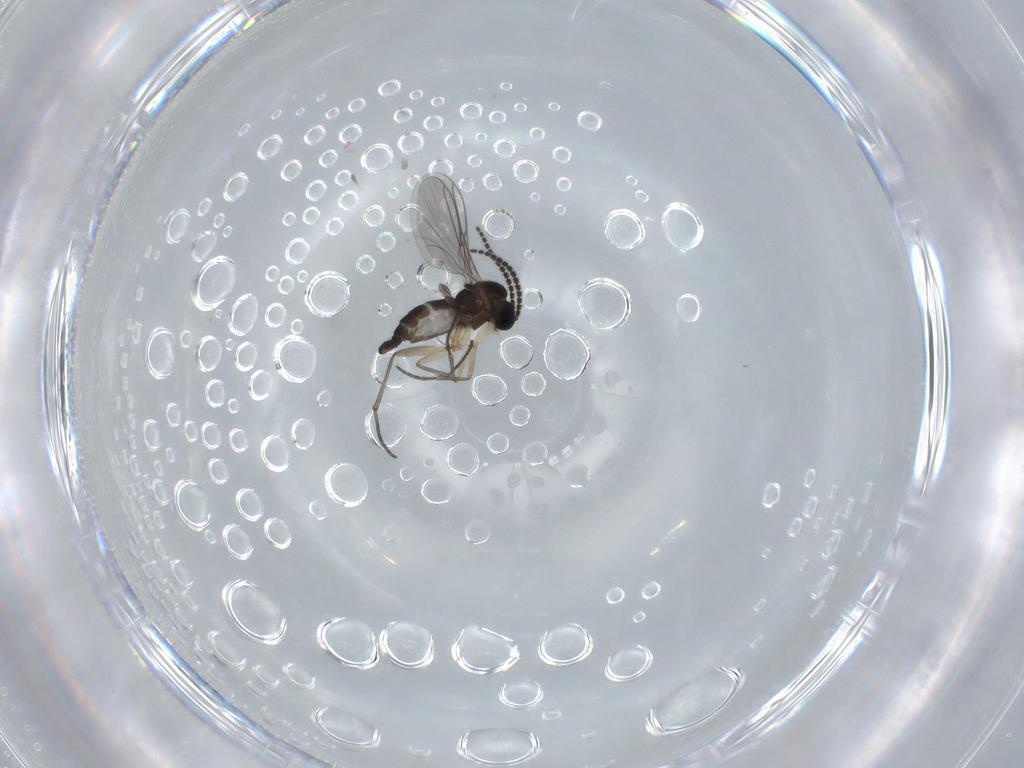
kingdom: Animalia
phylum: Arthropoda
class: Insecta
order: Diptera
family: Sciaridae
